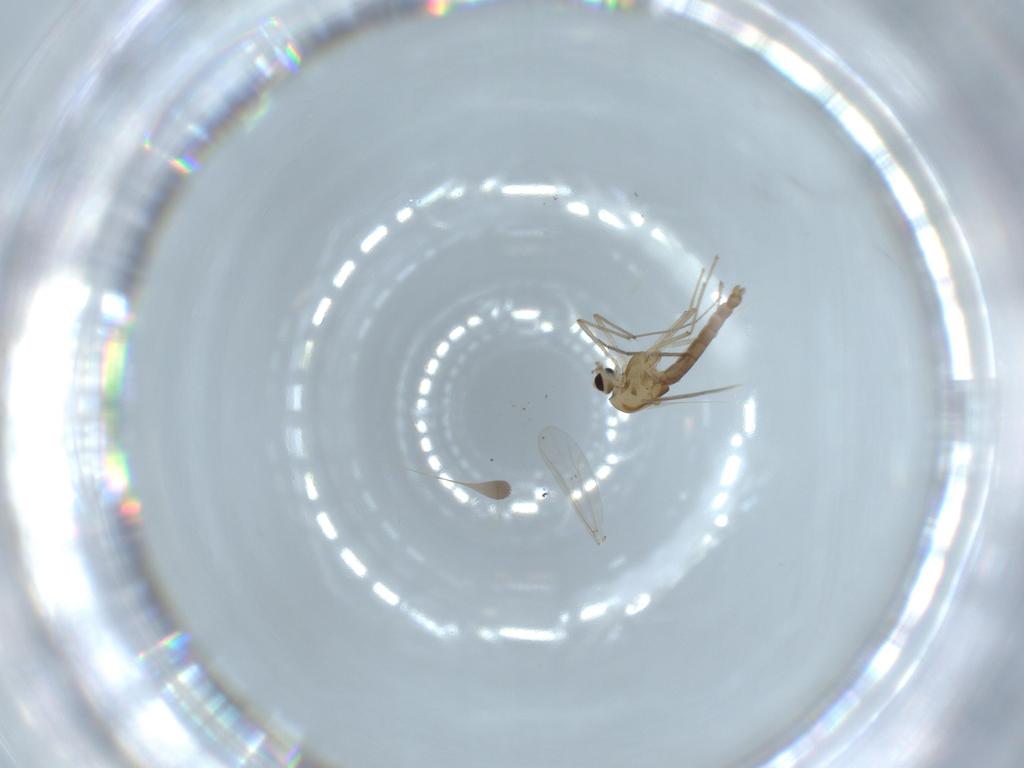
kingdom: Animalia
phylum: Arthropoda
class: Insecta
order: Diptera
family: Chironomidae
